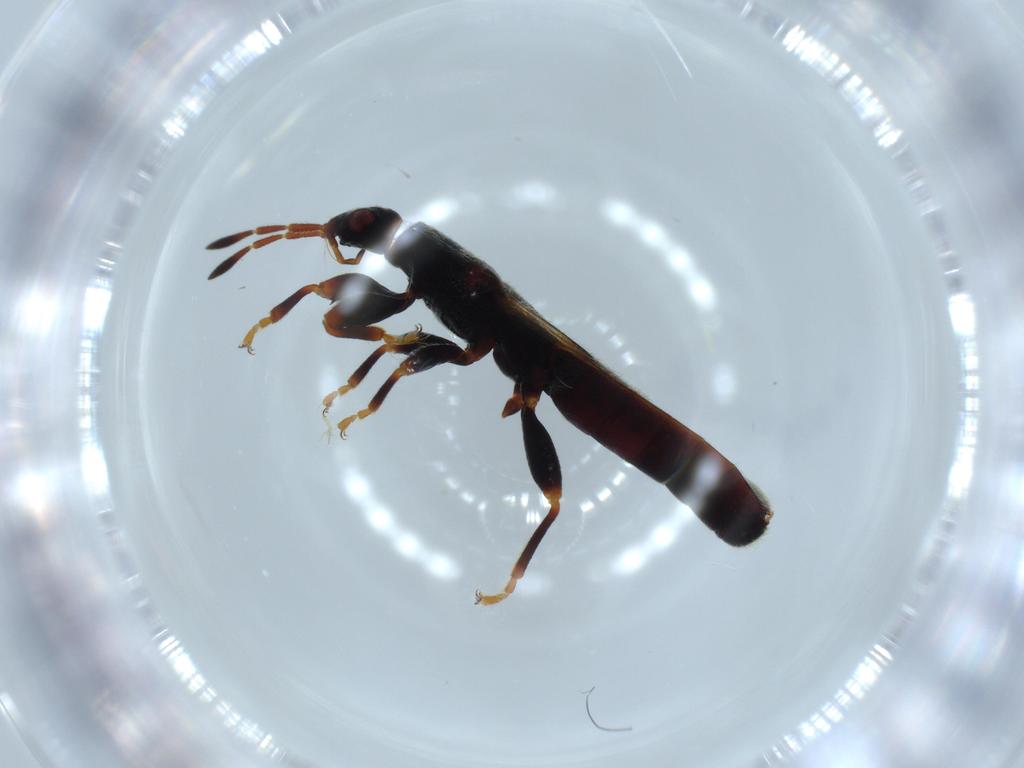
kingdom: Animalia
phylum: Arthropoda
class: Insecta
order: Hemiptera
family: Blissidae
